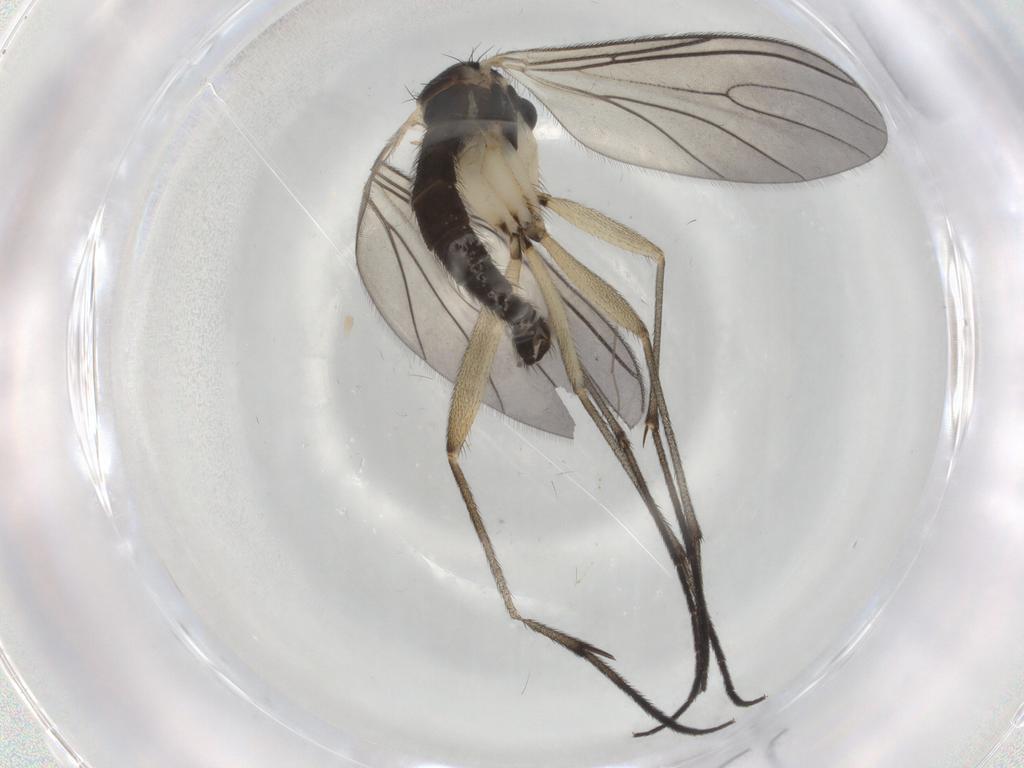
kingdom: Animalia
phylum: Arthropoda
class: Insecta
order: Diptera
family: Sciaridae
